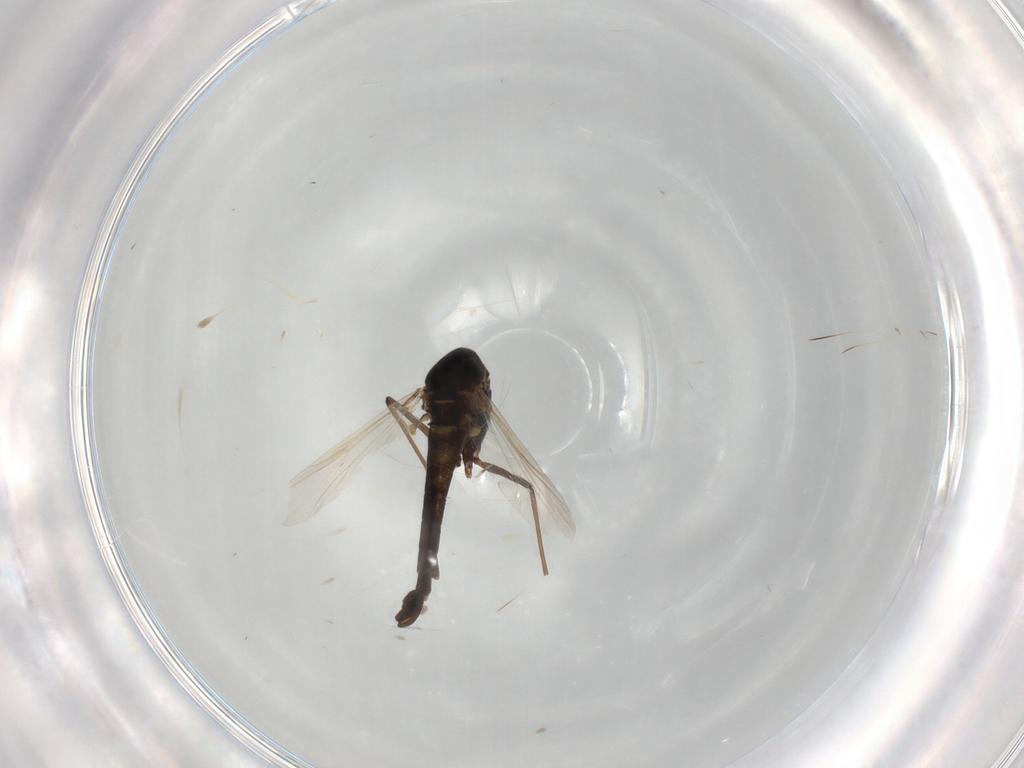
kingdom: Animalia
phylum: Arthropoda
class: Insecta
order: Diptera
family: Chironomidae
